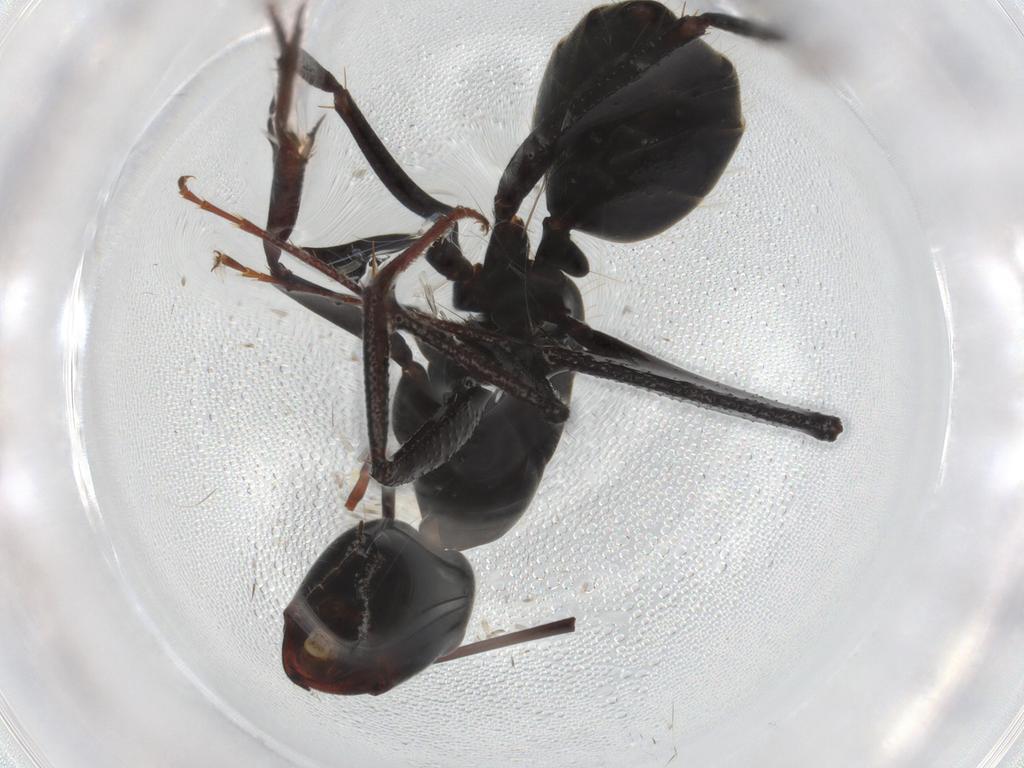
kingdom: Animalia
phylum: Arthropoda
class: Insecta
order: Hymenoptera
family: Formicidae
